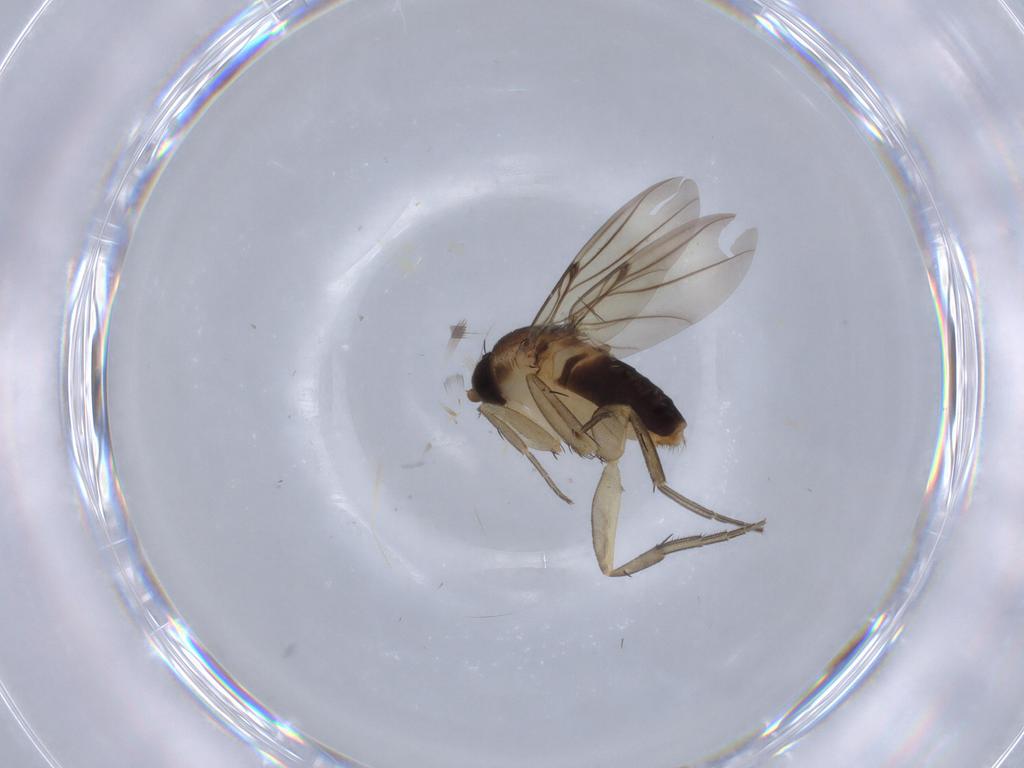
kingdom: Animalia
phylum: Arthropoda
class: Insecta
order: Diptera
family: Phoridae
